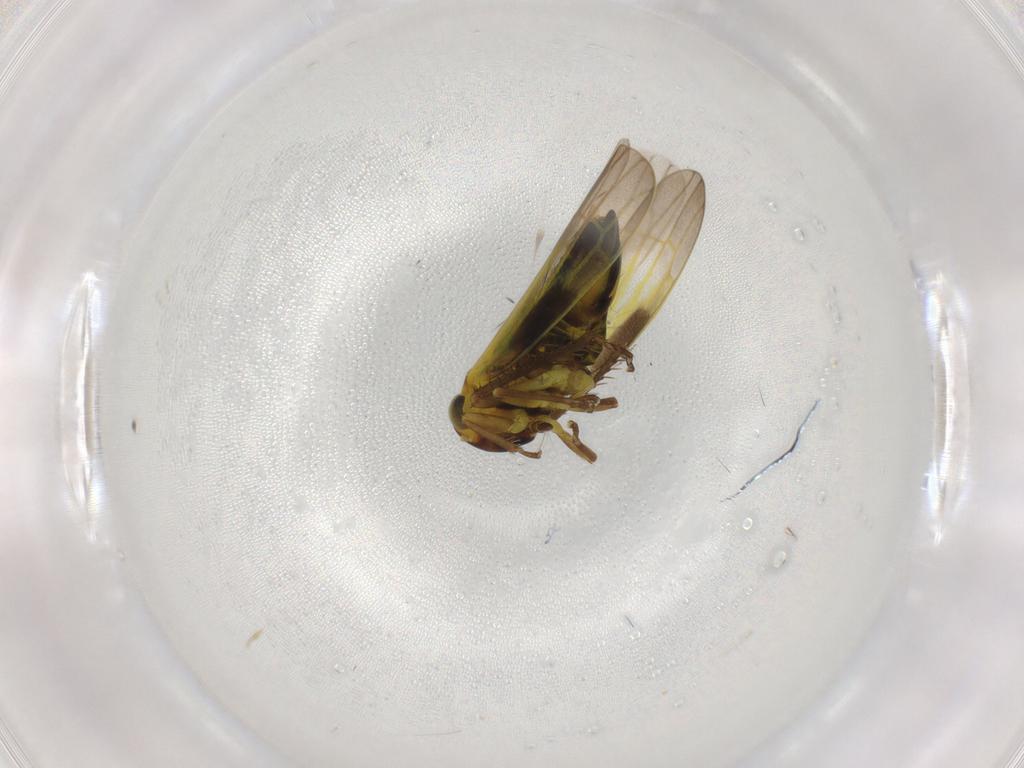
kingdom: Animalia
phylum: Arthropoda
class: Insecta
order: Hemiptera
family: Cicadellidae
